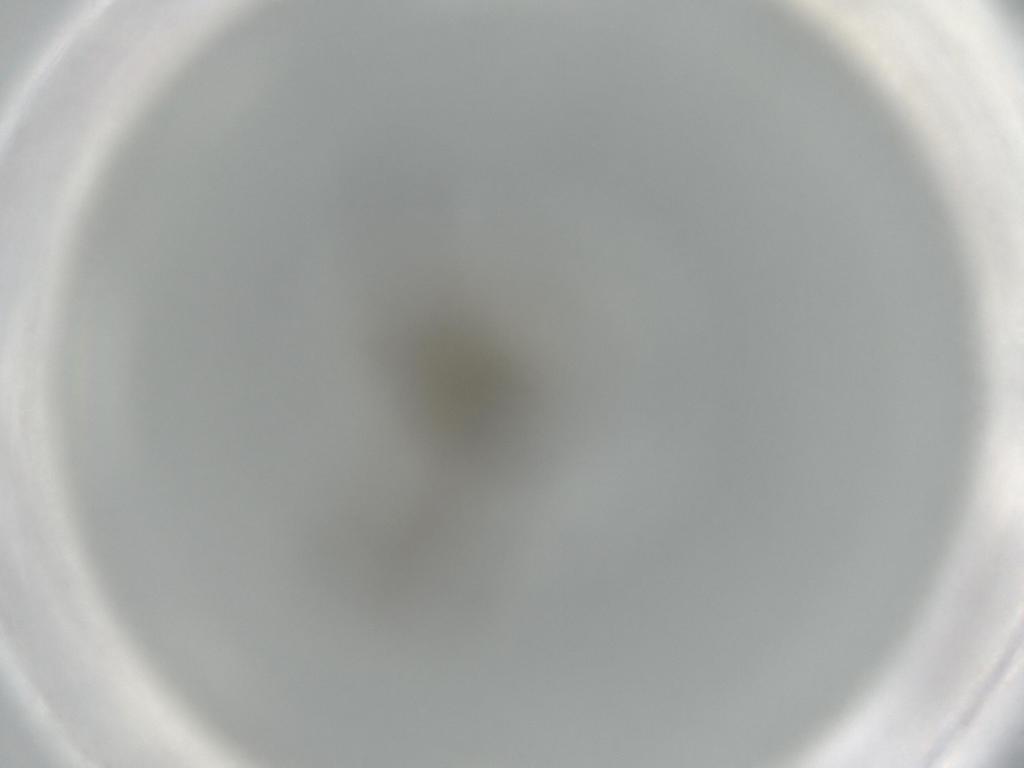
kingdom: Animalia
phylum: Arthropoda
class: Insecta
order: Diptera
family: Sciaridae
